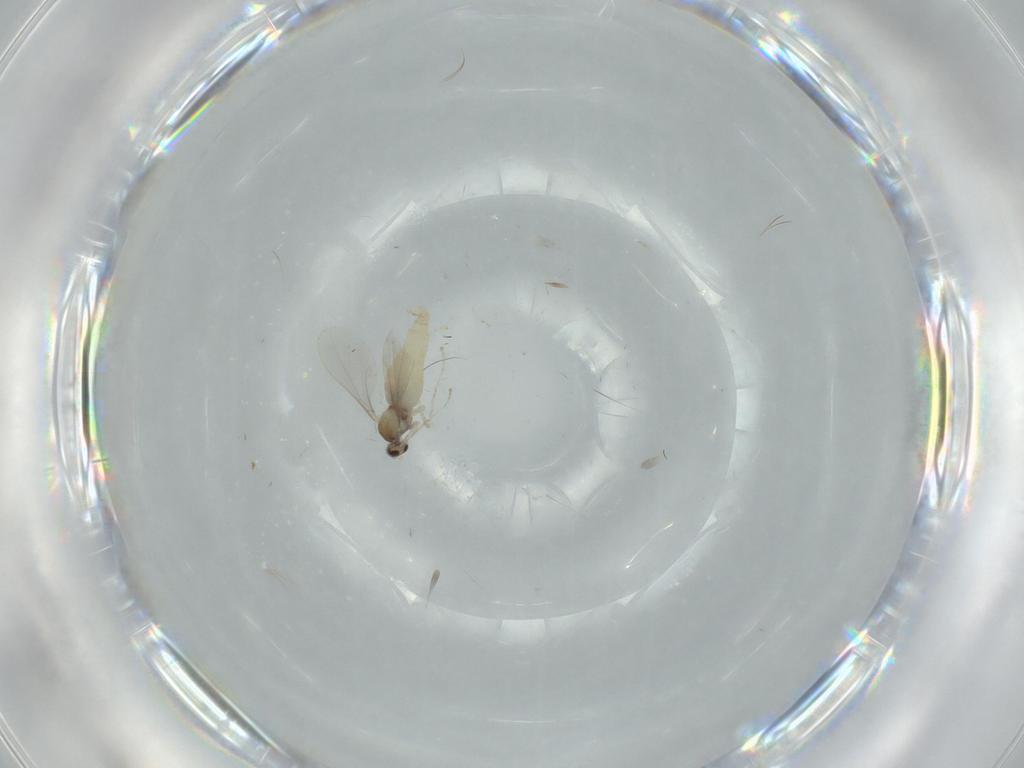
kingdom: Animalia
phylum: Arthropoda
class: Insecta
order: Diptera
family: Cecidomyiidae
